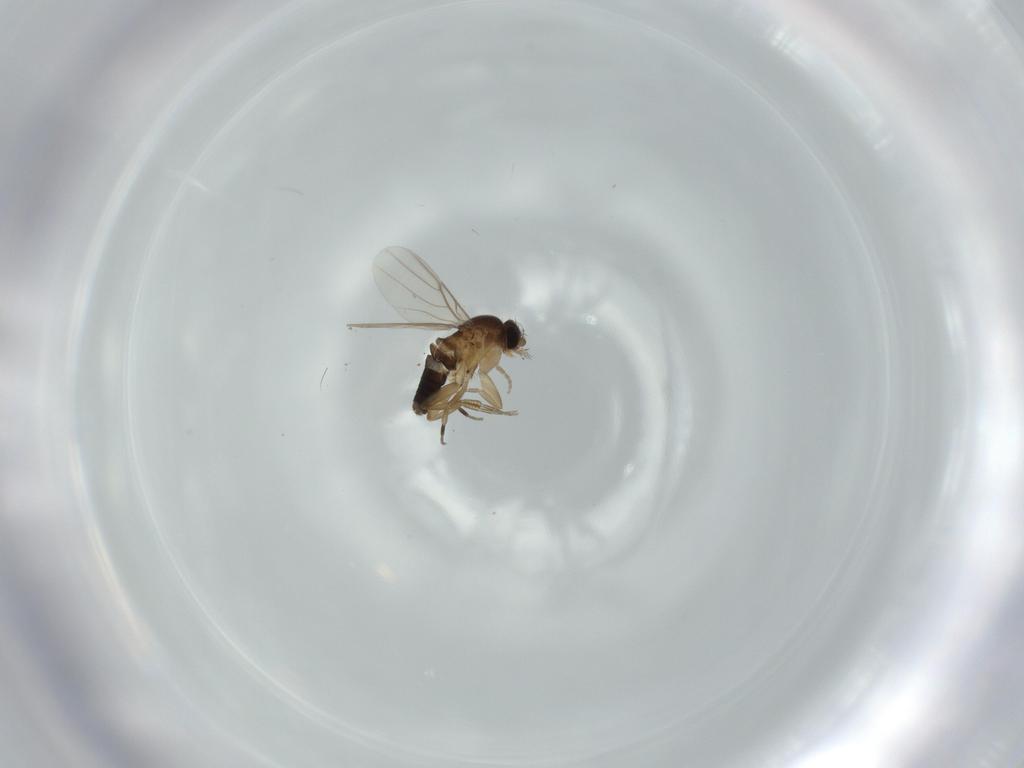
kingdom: Animalia
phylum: Arthropoda
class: Insecta
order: Diptera
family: Phoridae
